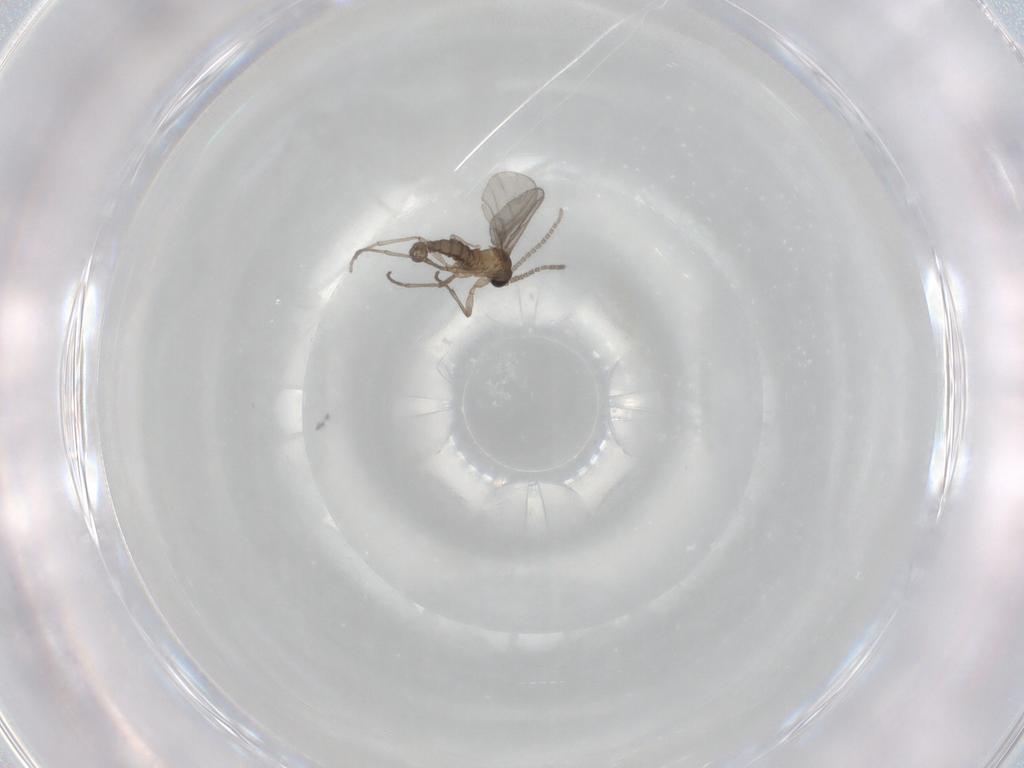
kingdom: Animalia
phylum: Arthropoda
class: Insecta
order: Diptera
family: Sciaridae
